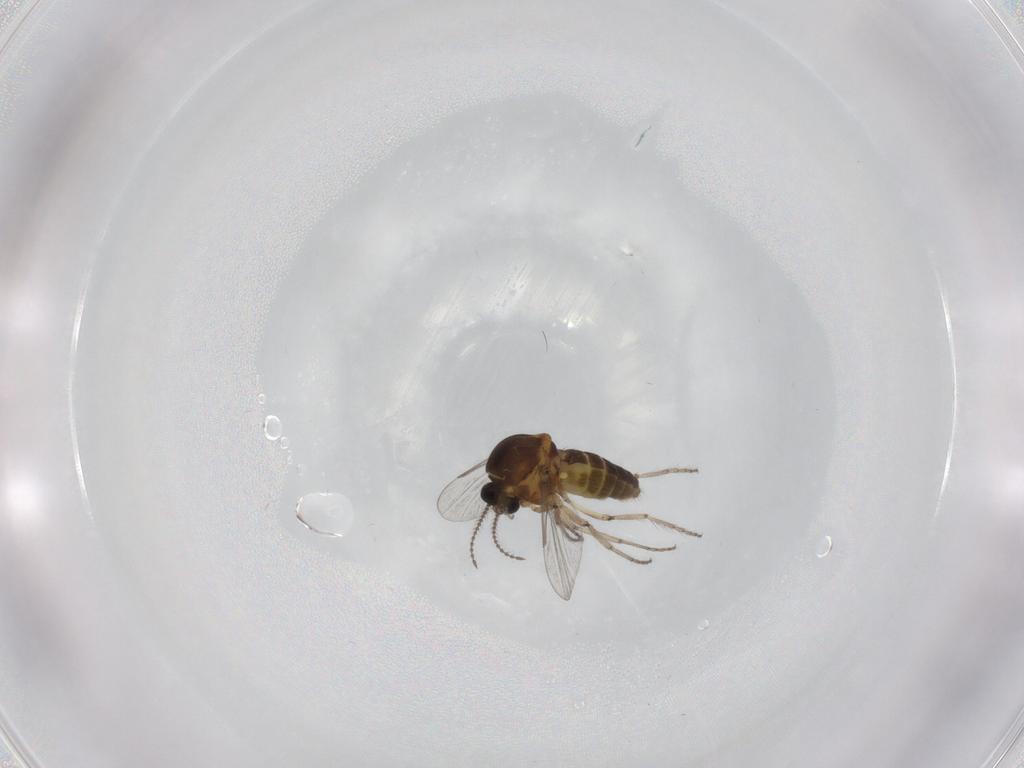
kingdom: Animalia
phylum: Arthropoda
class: Insecta
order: Diptera
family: Ceratopogonidae
